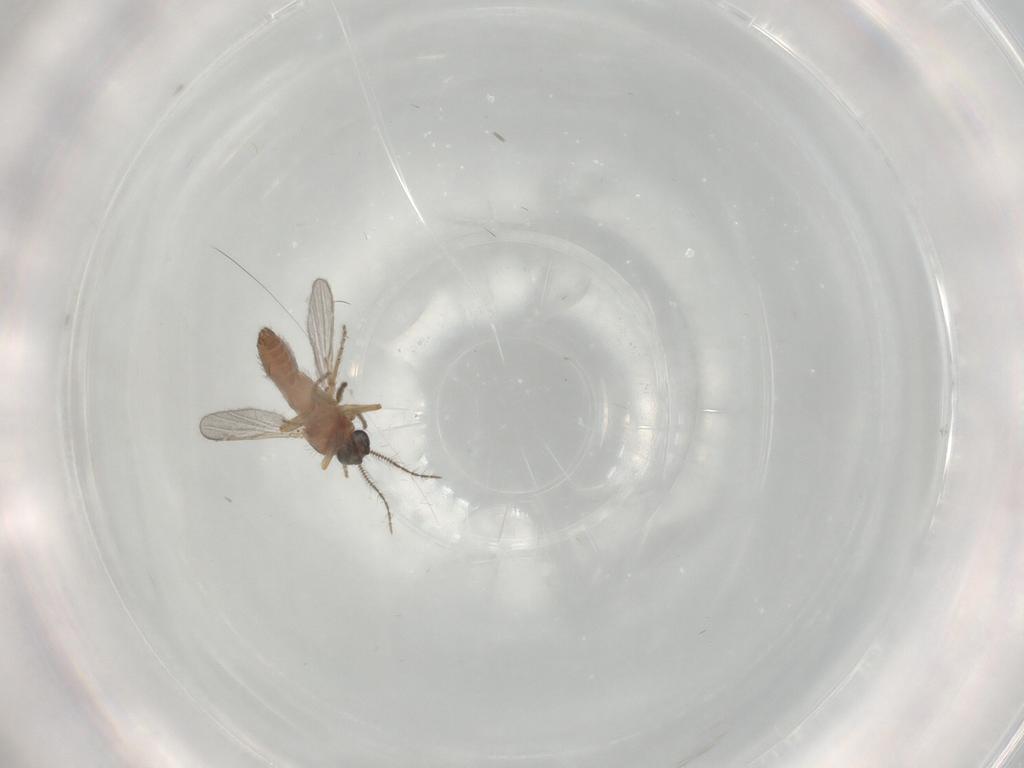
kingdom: Animalia
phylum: Arthropoda
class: Insecta
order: Diptera
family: Ceratopogonidae
